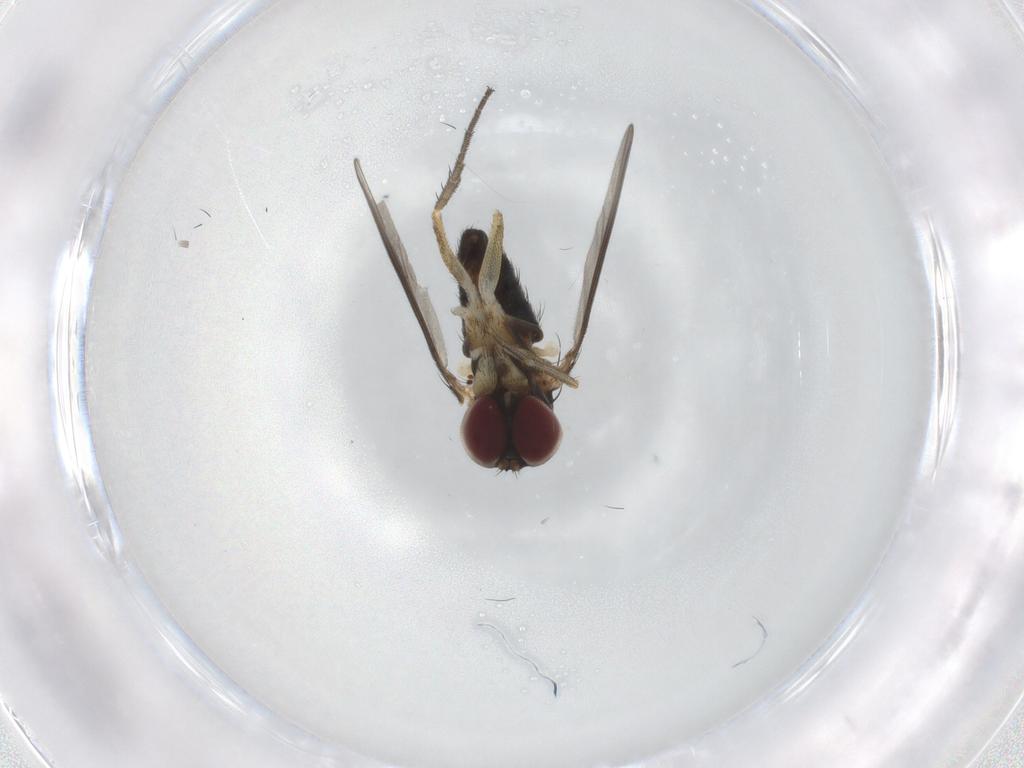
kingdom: Animalia
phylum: Arthropoda
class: Insecta
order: Diptera
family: Dolichopodidae
